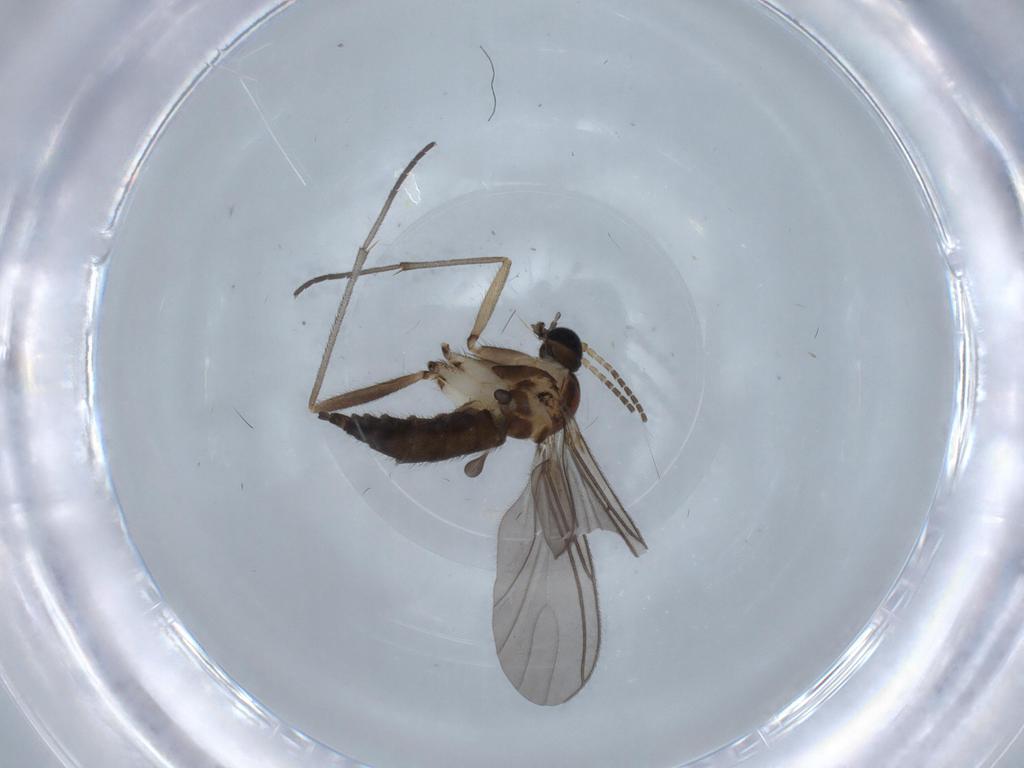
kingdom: Animalia
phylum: Arthropoda
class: Insecta
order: Diptera
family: Sciaridae
